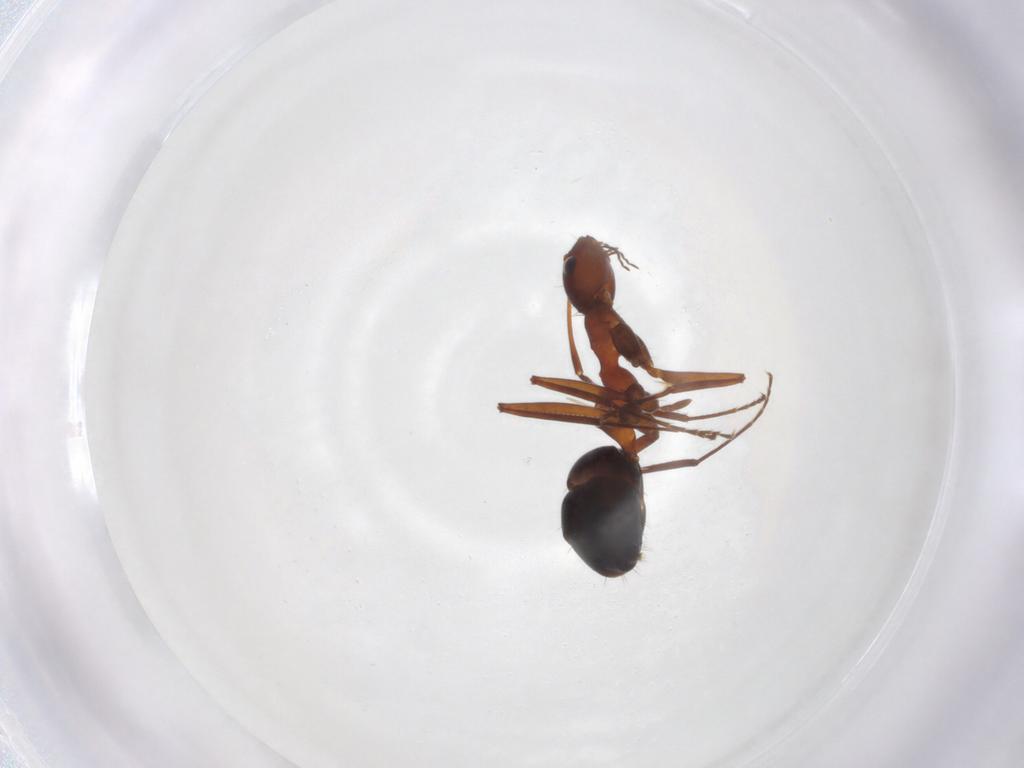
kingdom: Animalia
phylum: Arthropoda
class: Insecta
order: Hymenoptera
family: Formicidae
